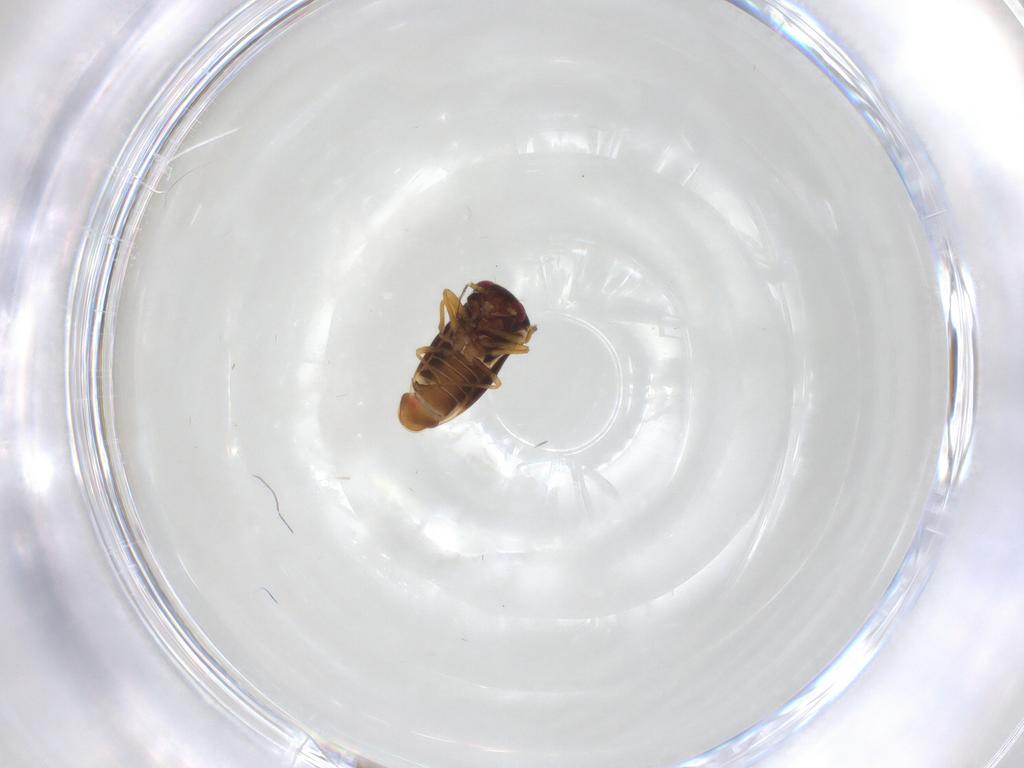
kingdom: Animalia
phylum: Arthropoda
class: Insecta
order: Hemiptera
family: Schizopteridae
